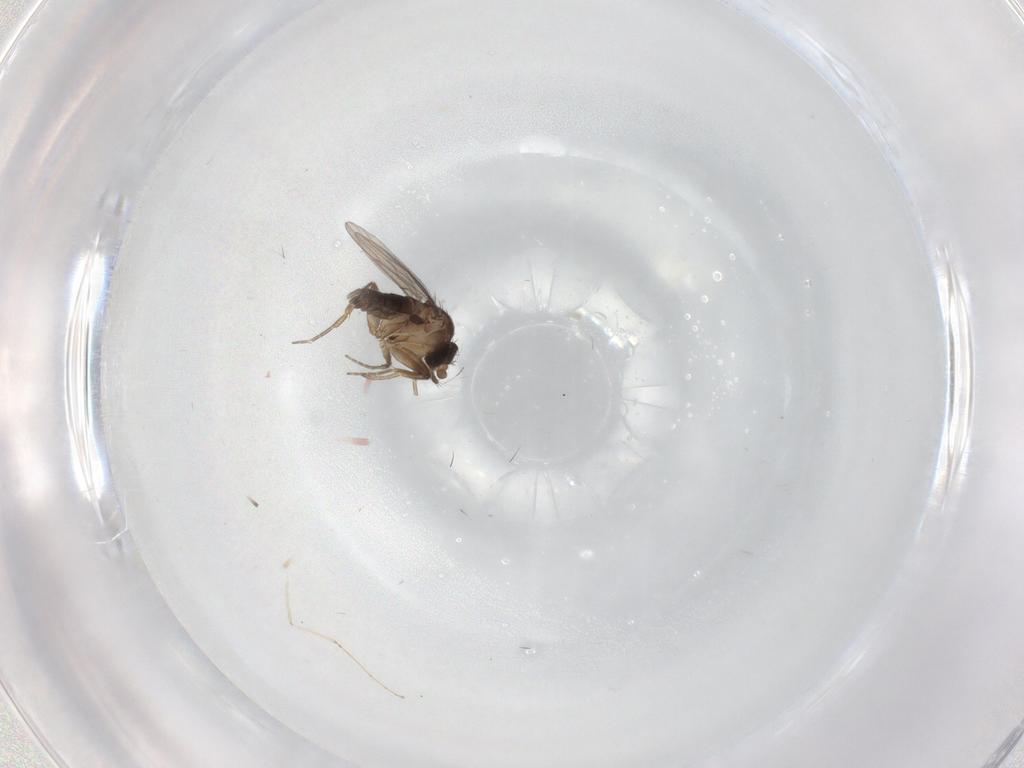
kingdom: Animalia
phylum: Arthropoda
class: Insecta
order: Diptera
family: Phoridae
